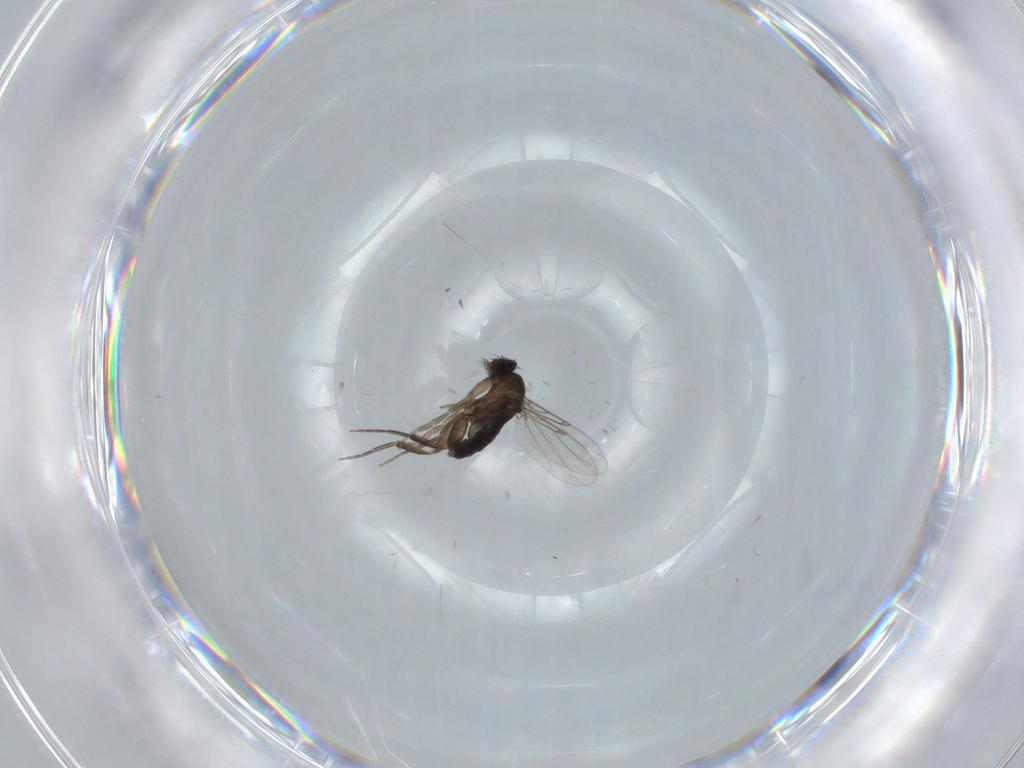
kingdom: Animalia
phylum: Arthropoda
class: Insecta
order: Diptera
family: Phoridae
